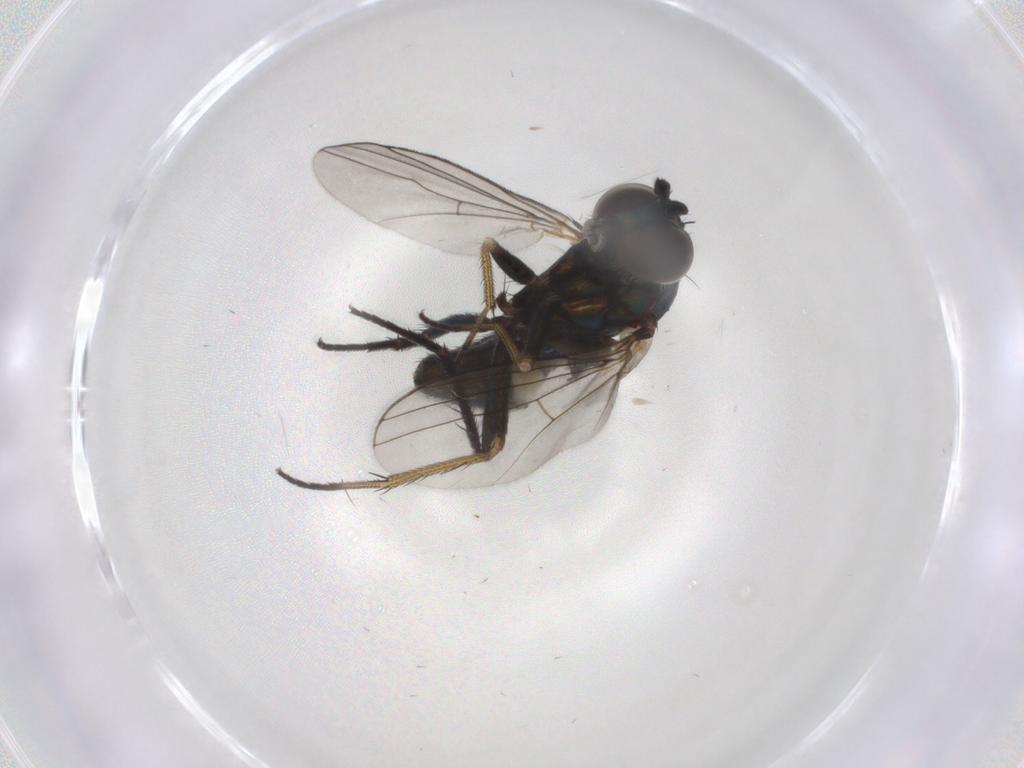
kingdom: Animalia
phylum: Arthropoda
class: Insecta
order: Diptera
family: Dolichopodidae
